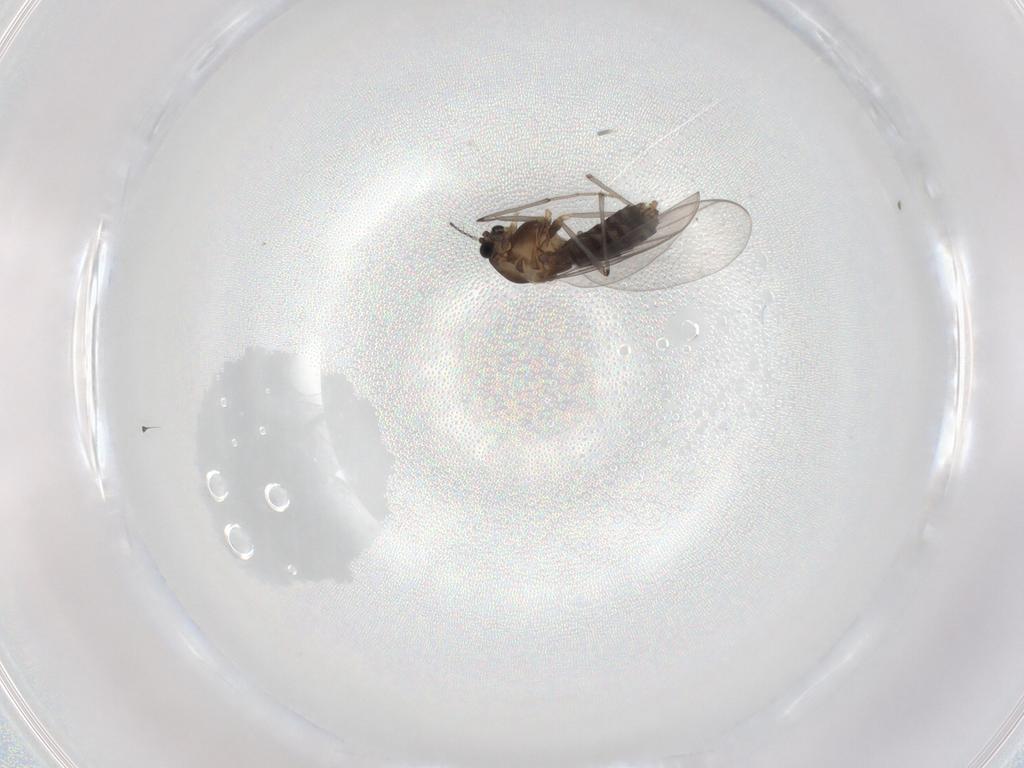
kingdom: Animalia
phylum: Arthropoda
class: Insecta
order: Diptera
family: Chironomidae
